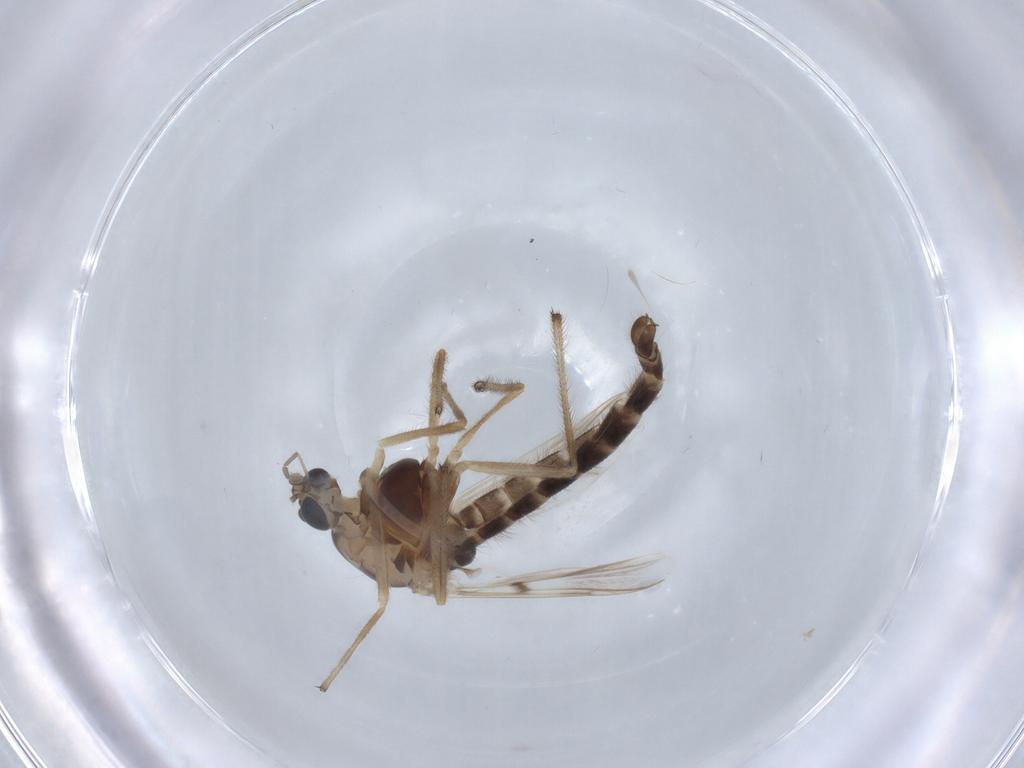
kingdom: Animalia
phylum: Arthropoda
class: Insecta
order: Diptera
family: Chironomidae
